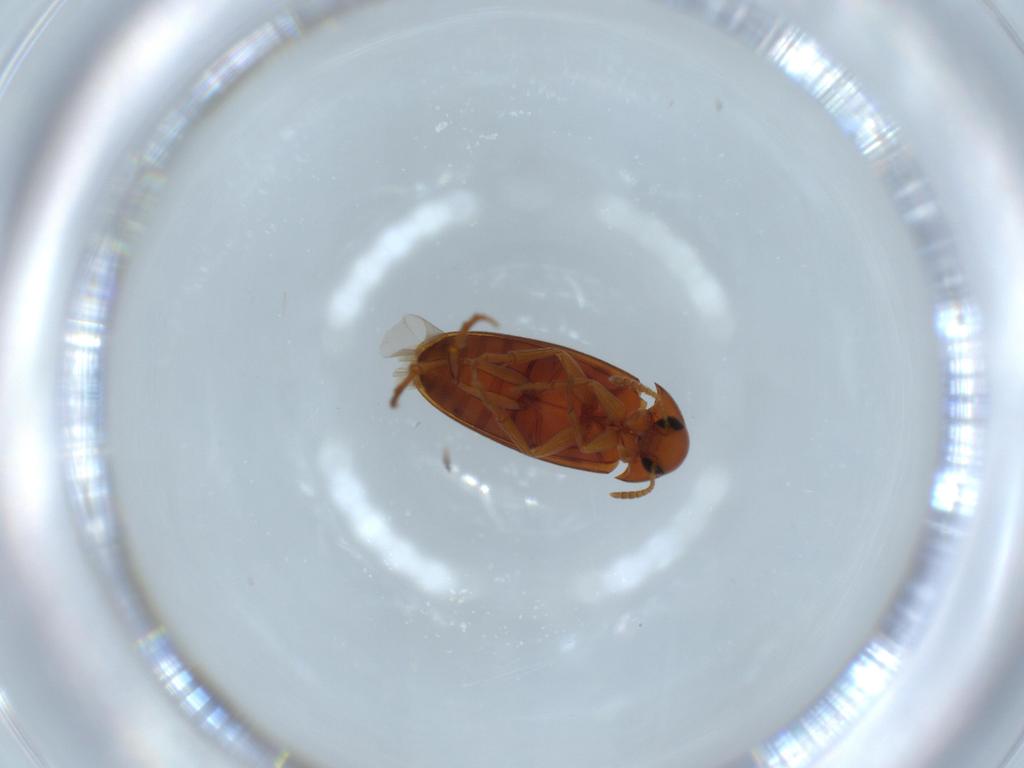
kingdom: Animalia
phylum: Arthropoda
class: Insecta
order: Coleoptera
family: Scraptiidae
